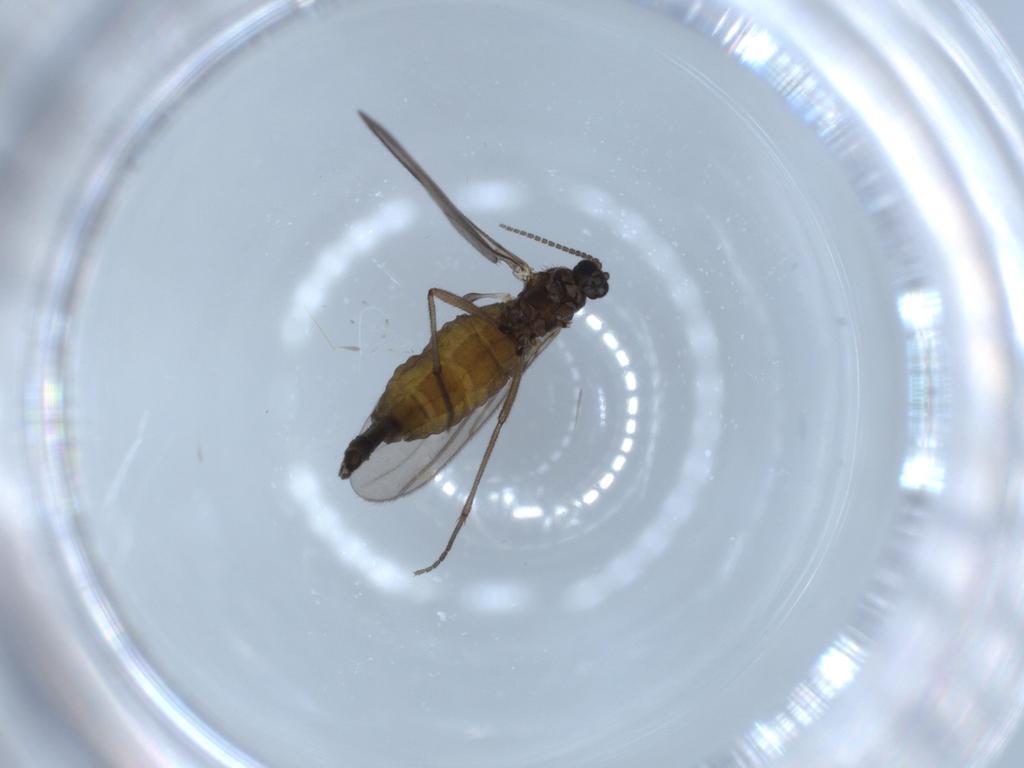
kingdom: Animalia
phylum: Arthropoda
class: Insecta
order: Diptera
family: Sciaridae
